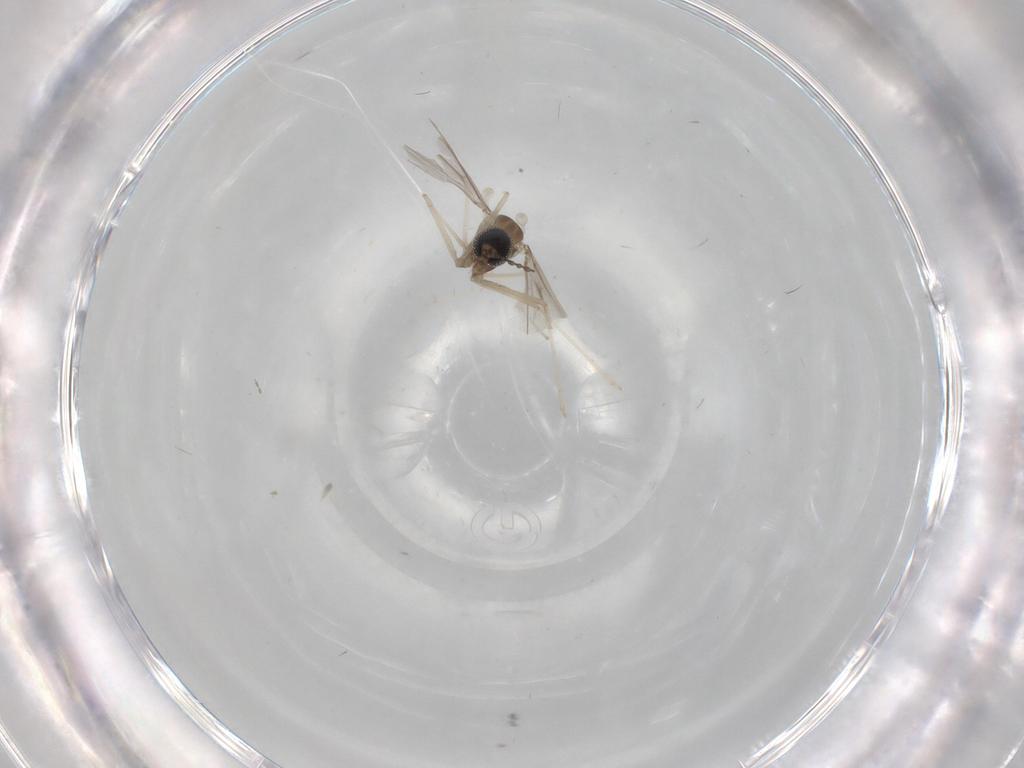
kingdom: Animalia
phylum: Arthropoda
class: Insecta
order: Diptera
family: Cecidomyiidae
